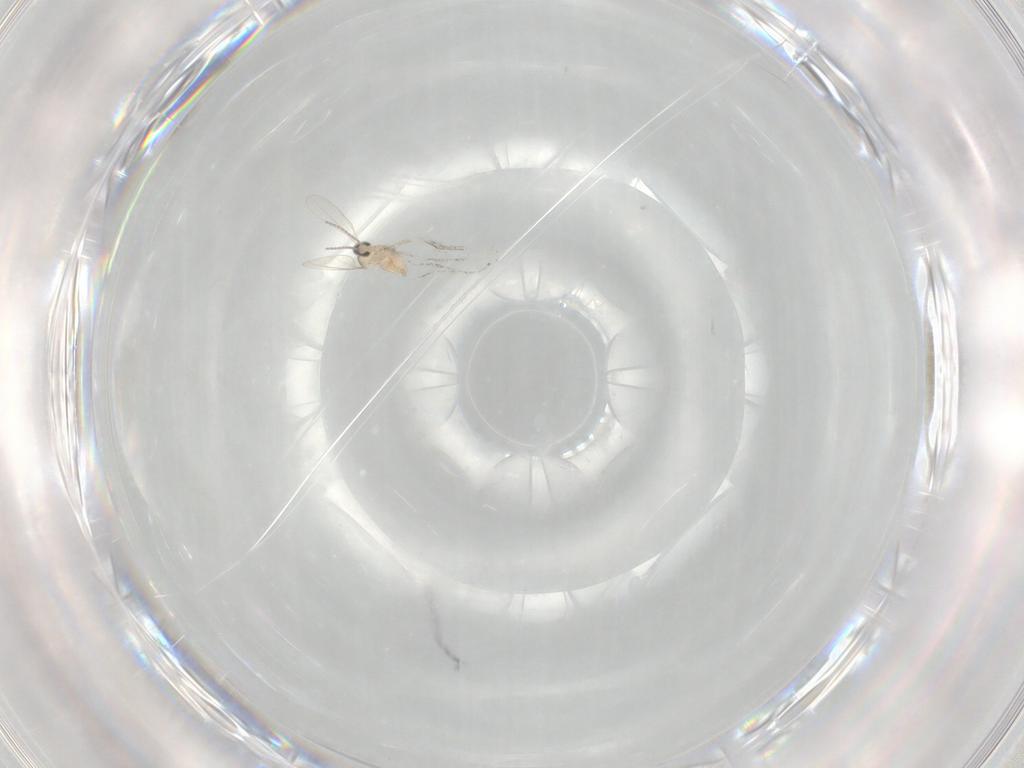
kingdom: Animalia
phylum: Arthropoda
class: Insecta
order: Diptera
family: Cecidomyiidae
